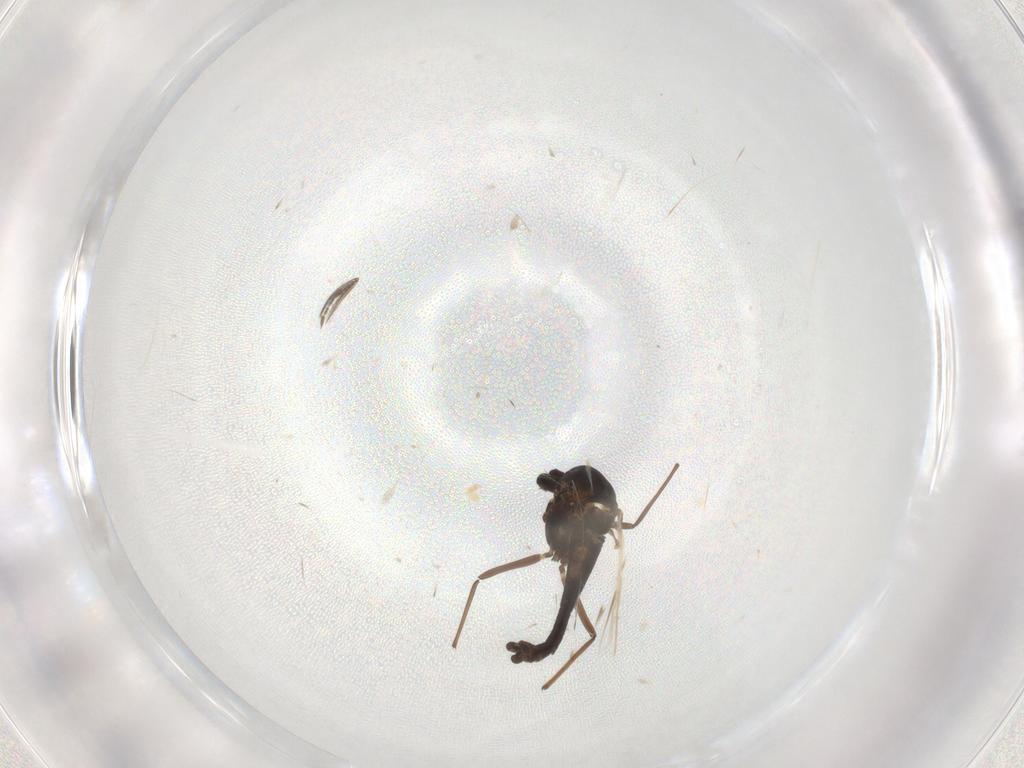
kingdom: Animalia
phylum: Arthropoda
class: Insecta
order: Diptera
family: Chironomidae
